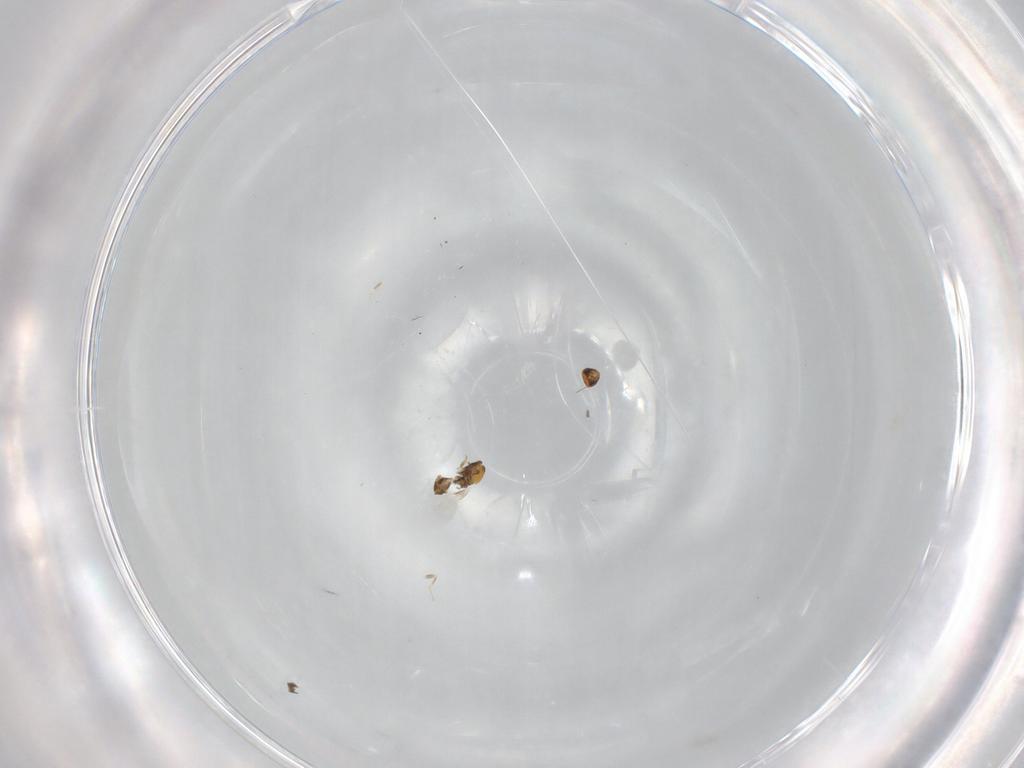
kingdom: Animalia
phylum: Arthropoda
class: Insecta
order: Hymenoptera
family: Aphelinidae
